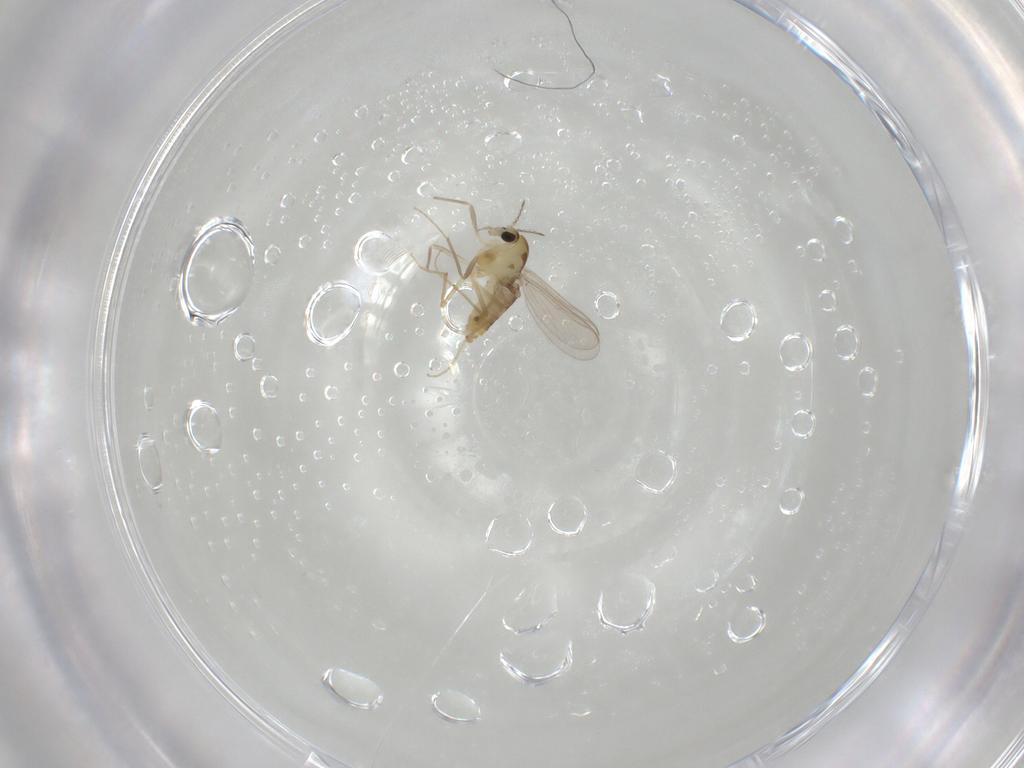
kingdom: Animalia
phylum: Arthropoda
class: Insecta
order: Diptera
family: Chironomidae
